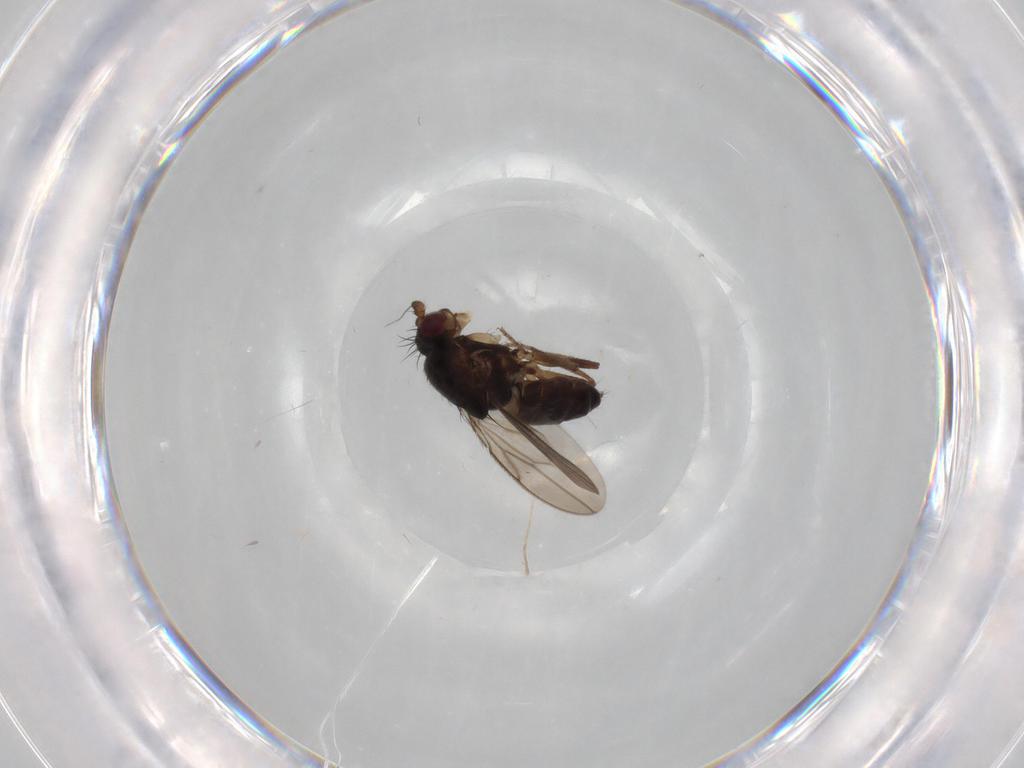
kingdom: Animalia
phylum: Arthropoda
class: Insecta
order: Diptera
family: Sphaeroceridae
